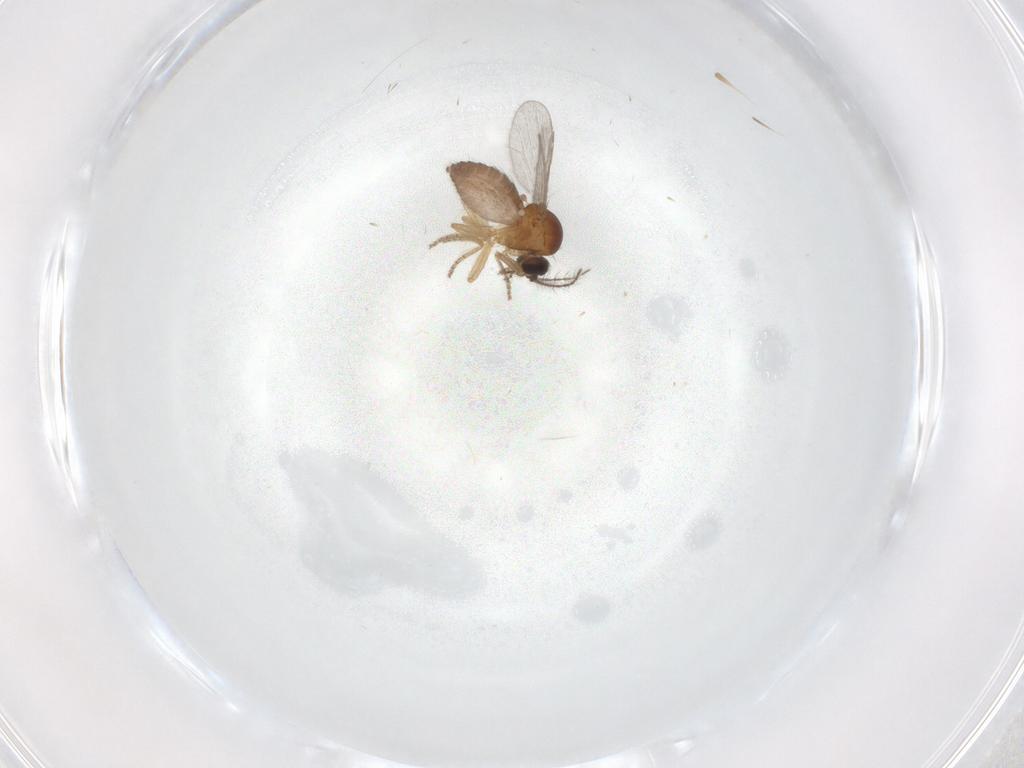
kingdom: Animalia
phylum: Arthropoda
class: Insecta
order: Diptera
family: Ceratopogonidae
